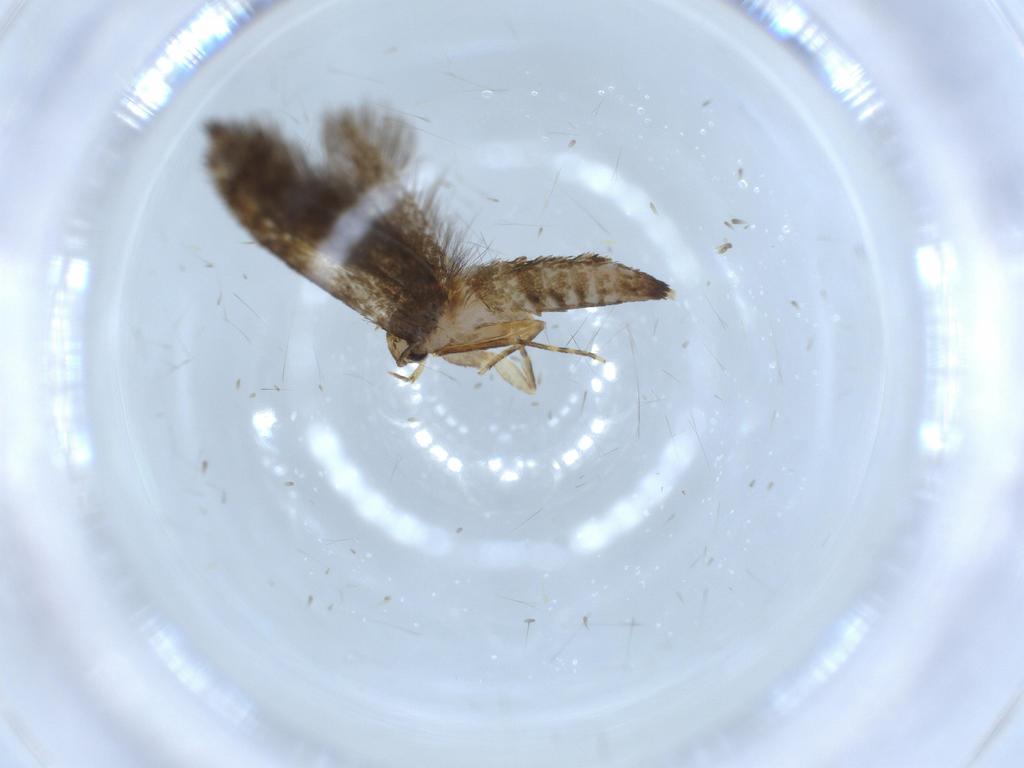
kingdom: Animalia
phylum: Arthropoda
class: Insecta
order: Lepidoptera
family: Tineidae
